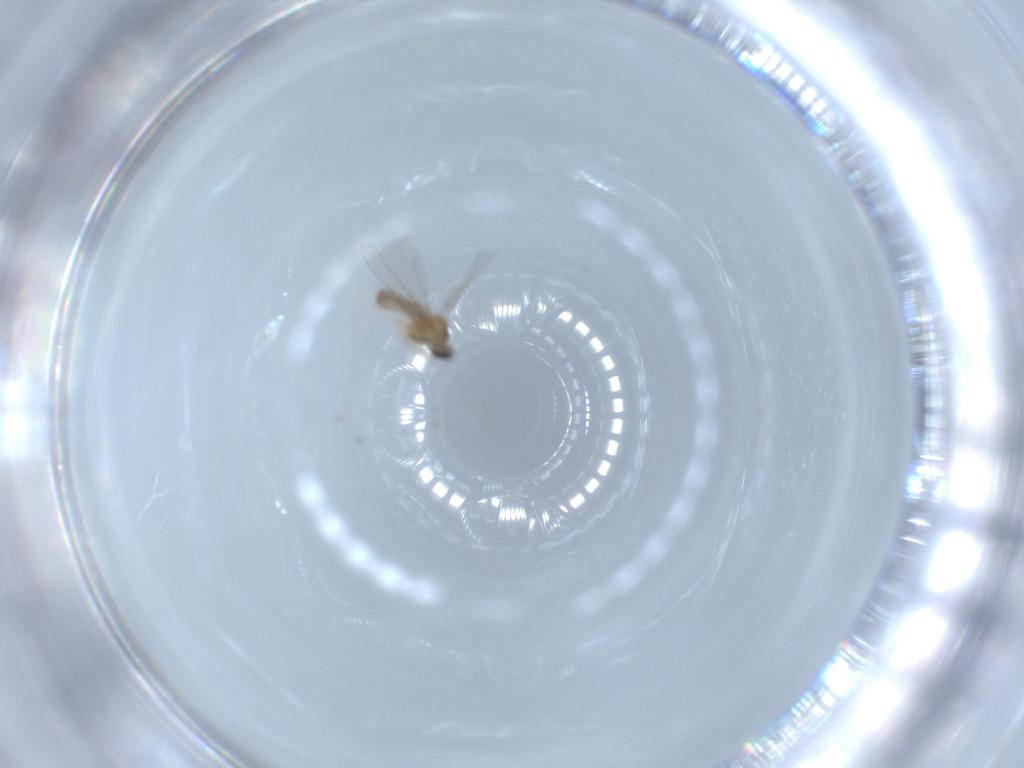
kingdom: Animalia
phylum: Arthropoda
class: Insecta
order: Diptera
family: Cecidomyiidae
